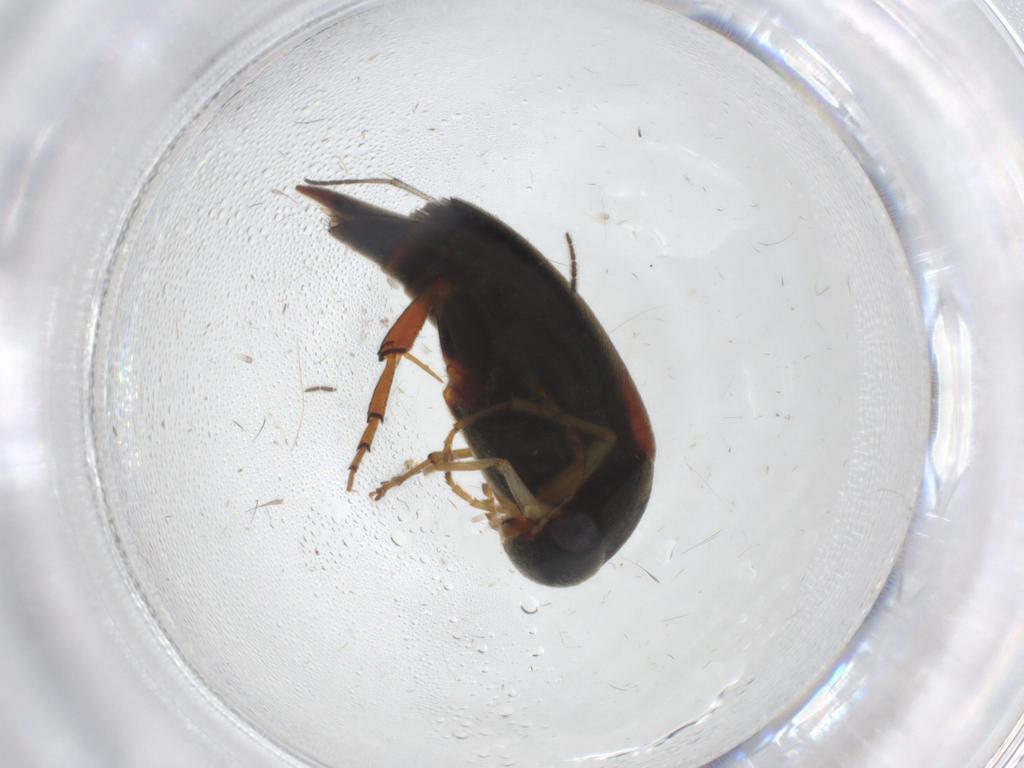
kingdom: Animalia
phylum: Arthropoda
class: Insecta
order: Coleoptera
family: Mordellidae
